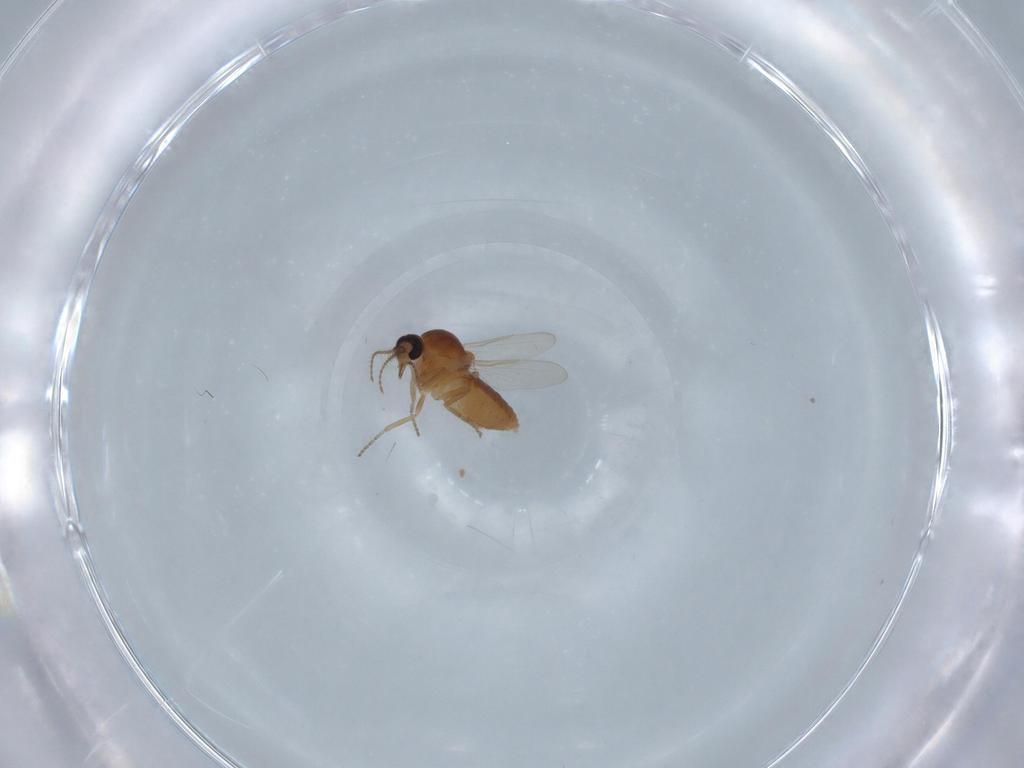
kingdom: Animalia
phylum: Arthropoda
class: Insecta
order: Diptera
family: Ceratopogonidae
